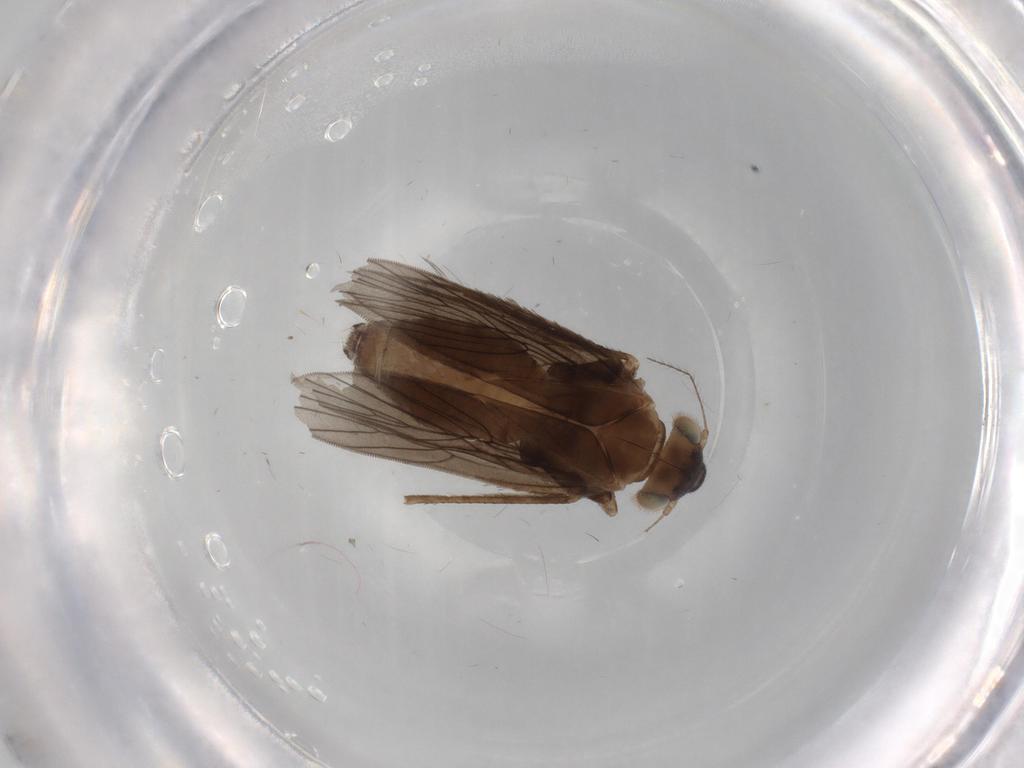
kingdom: Animalia
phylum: Arthropoda
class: Insecta
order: Psocodea
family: Lepidopsocidae
